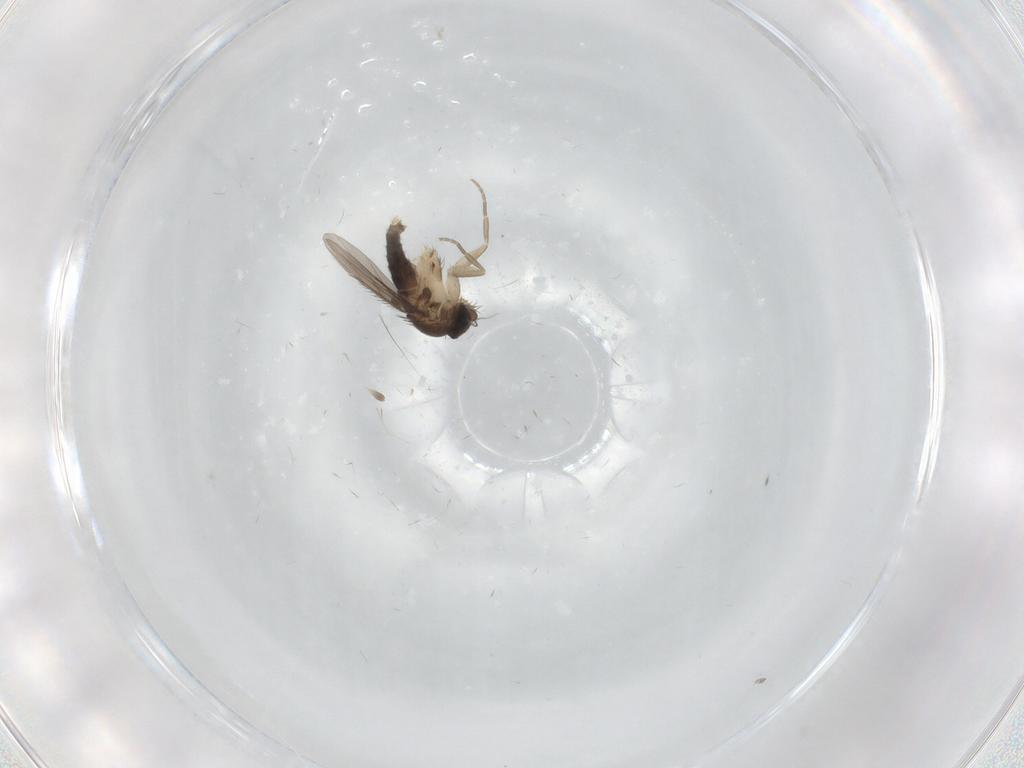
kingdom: Animalia
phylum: Arthropoda
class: Insecta
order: Diptera
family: Phoridae
